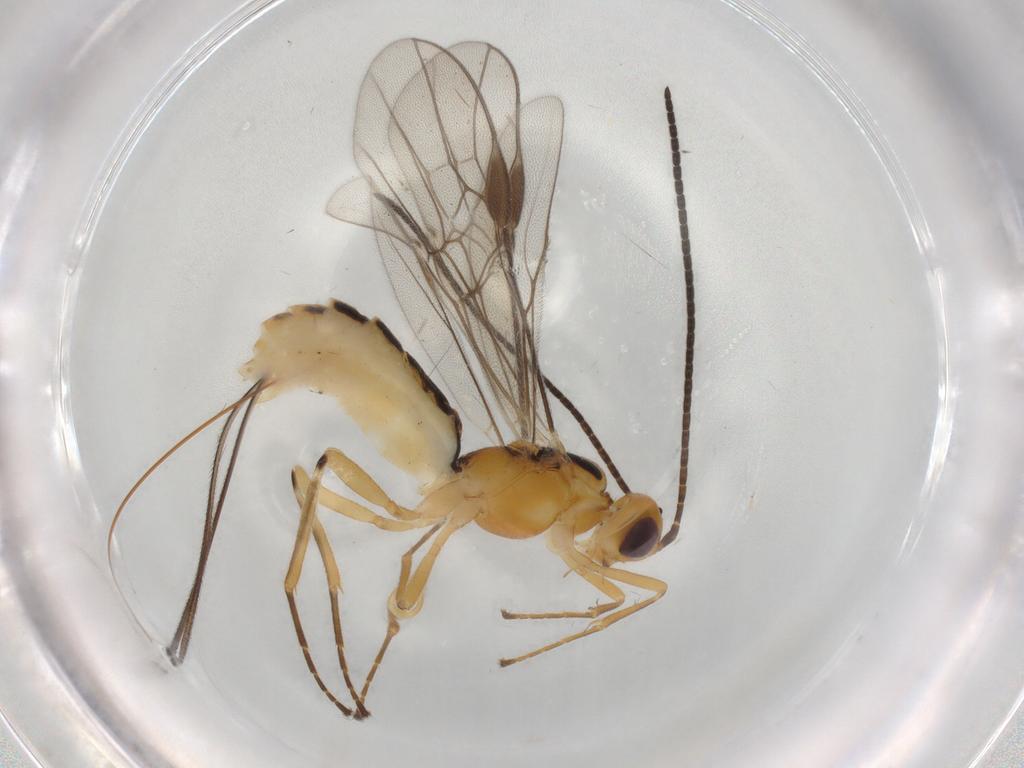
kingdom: Animalia
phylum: Arthropoda
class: Insecta
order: Hymenoptera
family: Braconidae
